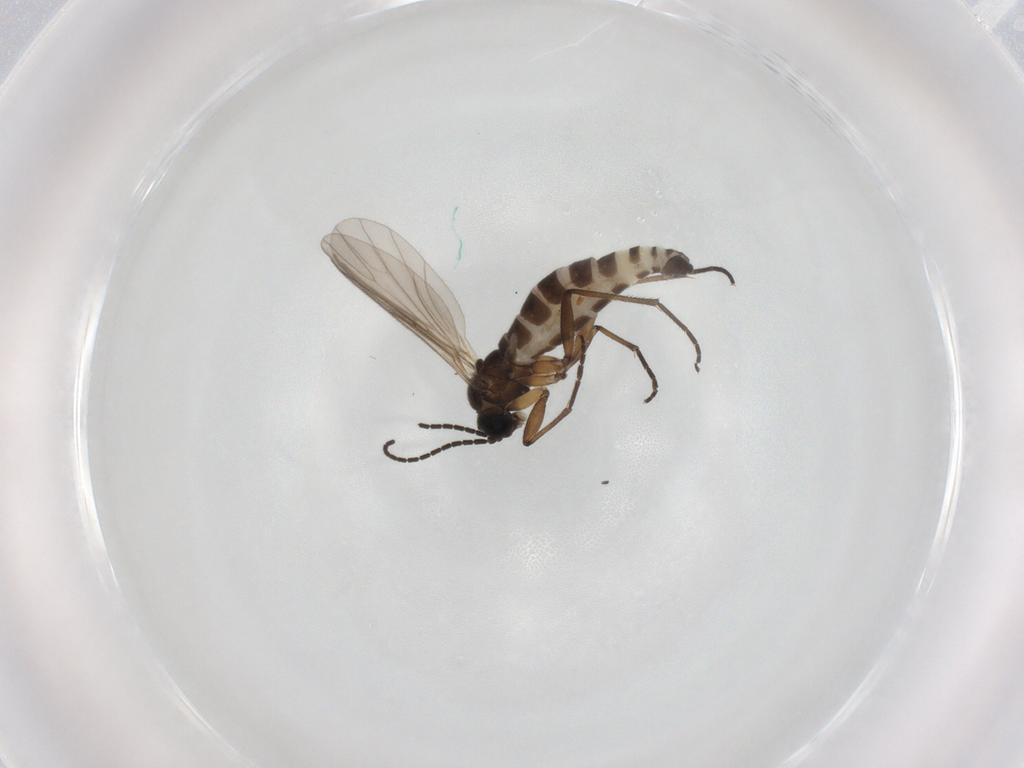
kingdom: Animalia
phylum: Arthropoda
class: Insecta
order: Diptera
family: Sciaridae
